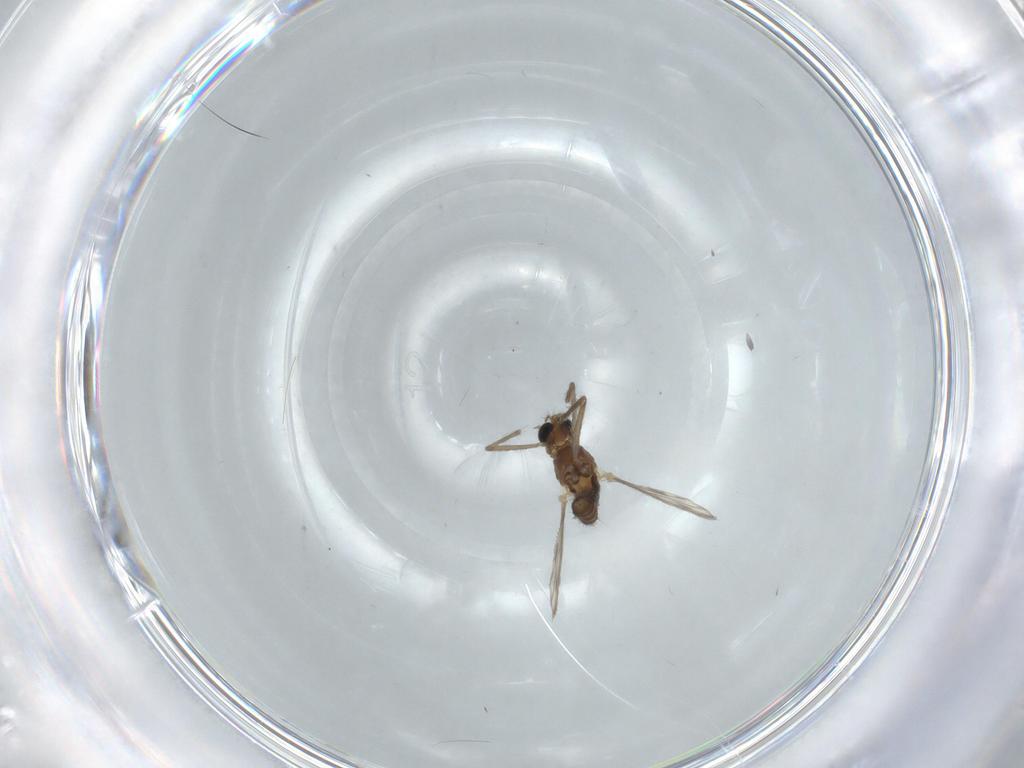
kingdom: Animalia
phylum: Arthropoda
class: Insecta
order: Diptera
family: Chironomidae
